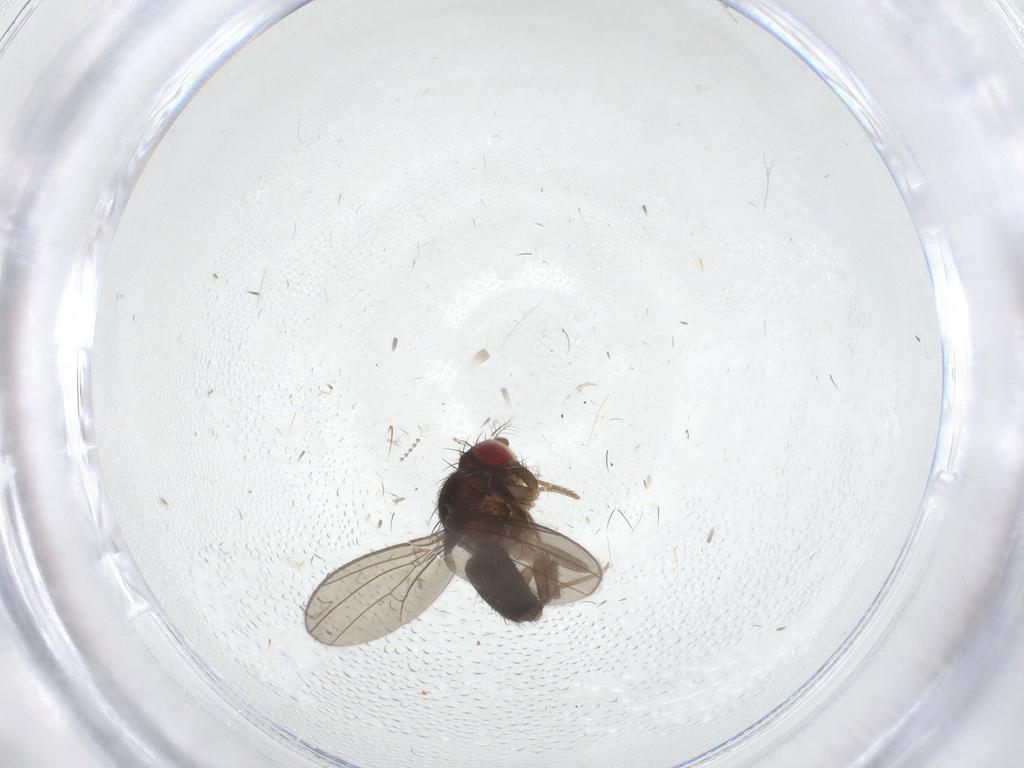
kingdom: Animalia
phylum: Arthropoda
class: Insecta
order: Diptera
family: Drosophilidae
